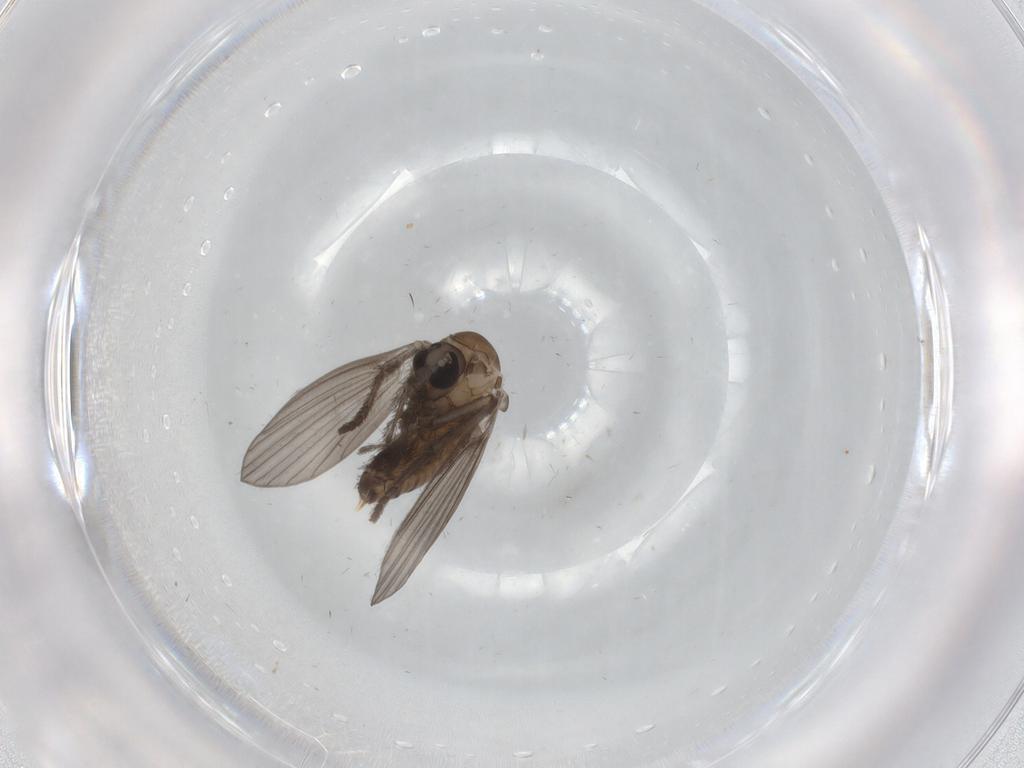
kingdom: Animalia
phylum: Arthropoda
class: Insecta
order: Diptera
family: Psychodidae
